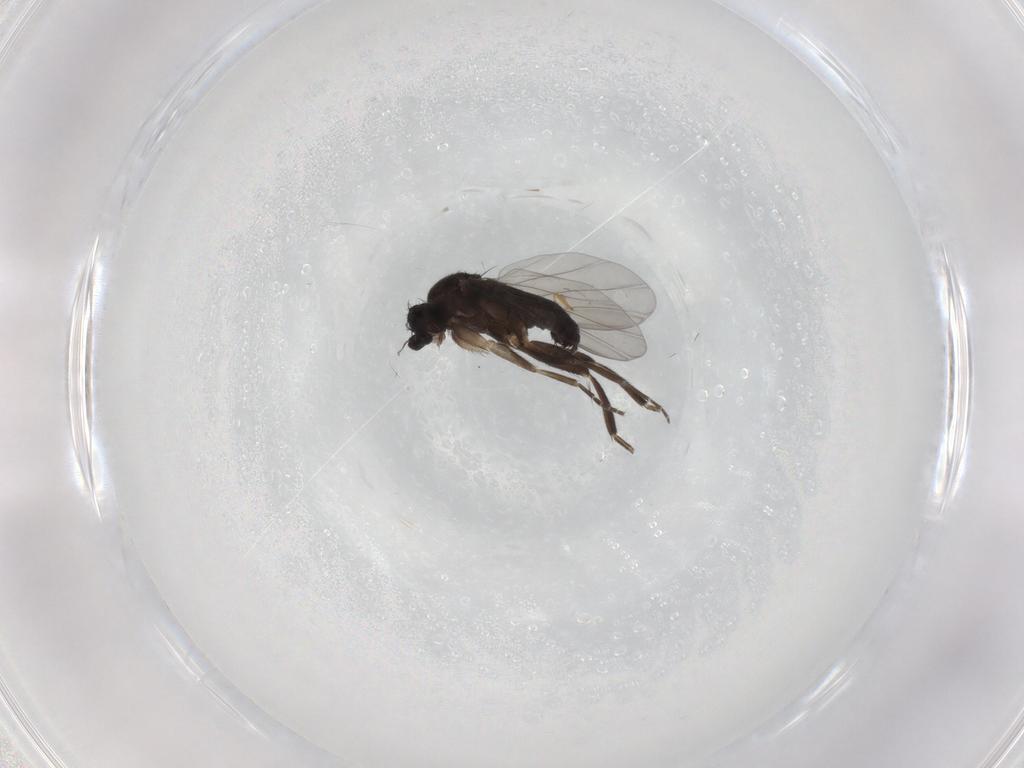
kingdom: Animalia
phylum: Arthropoda
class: Insecta
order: Diptera
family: Phoridae
